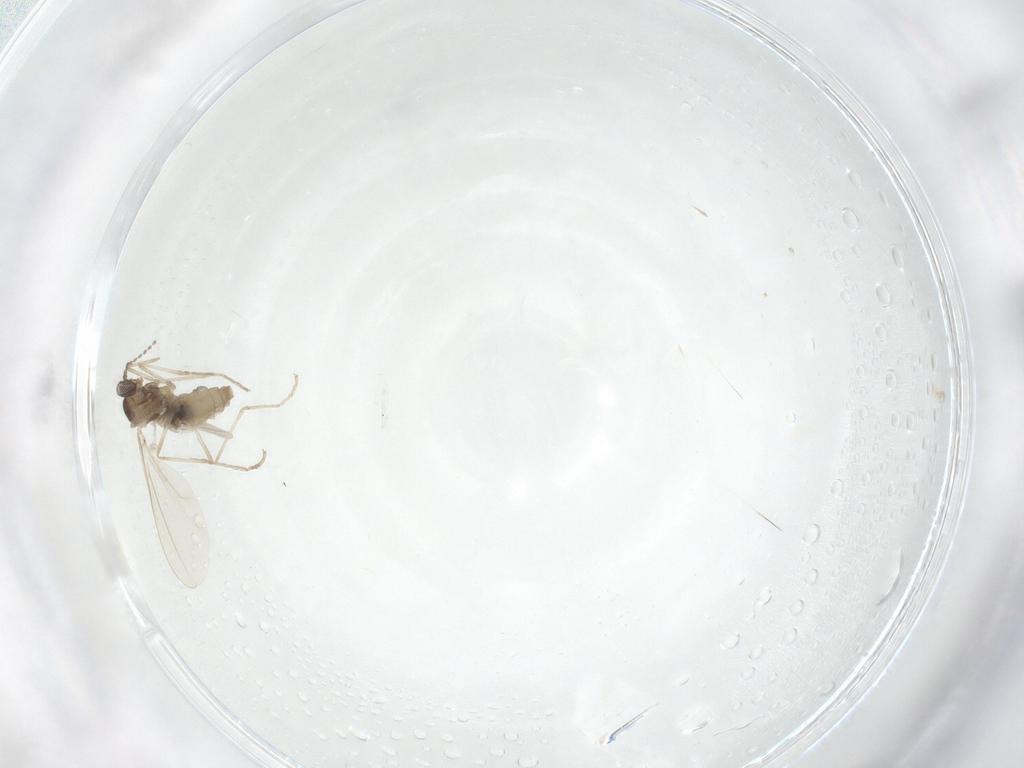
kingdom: Animalia
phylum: Arthropoda
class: Insecta
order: Diptera
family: Cecidomyiidae
